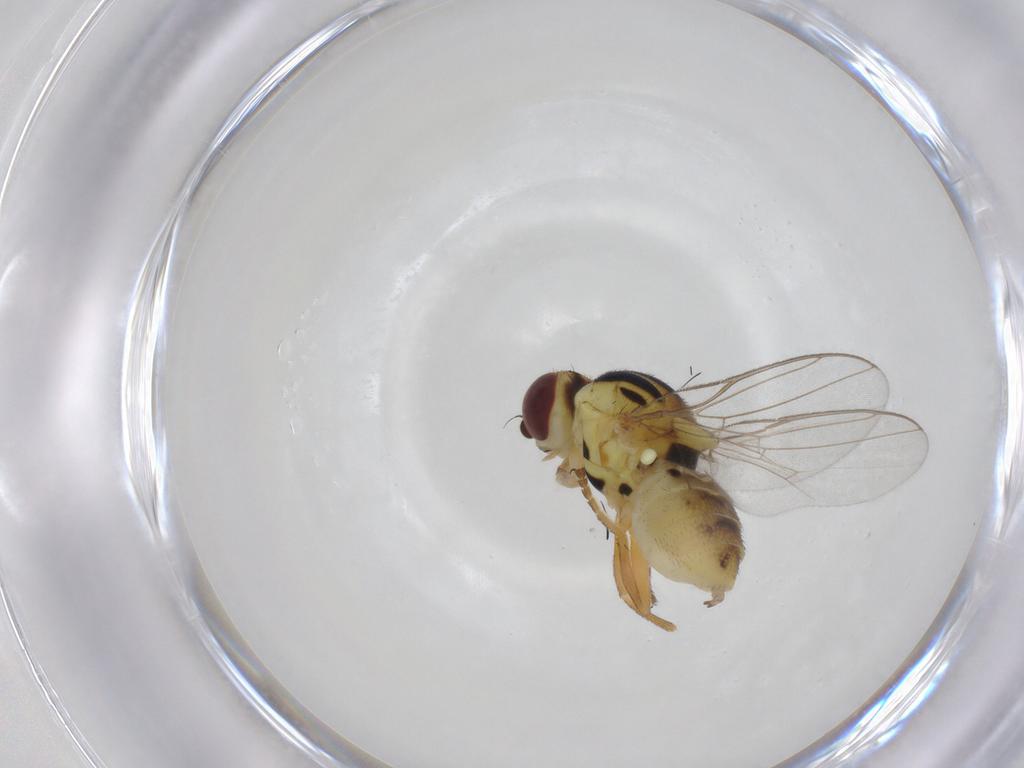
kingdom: Animalia
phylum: Arthropoda
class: Insecta
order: Diptera
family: Chloropidae
